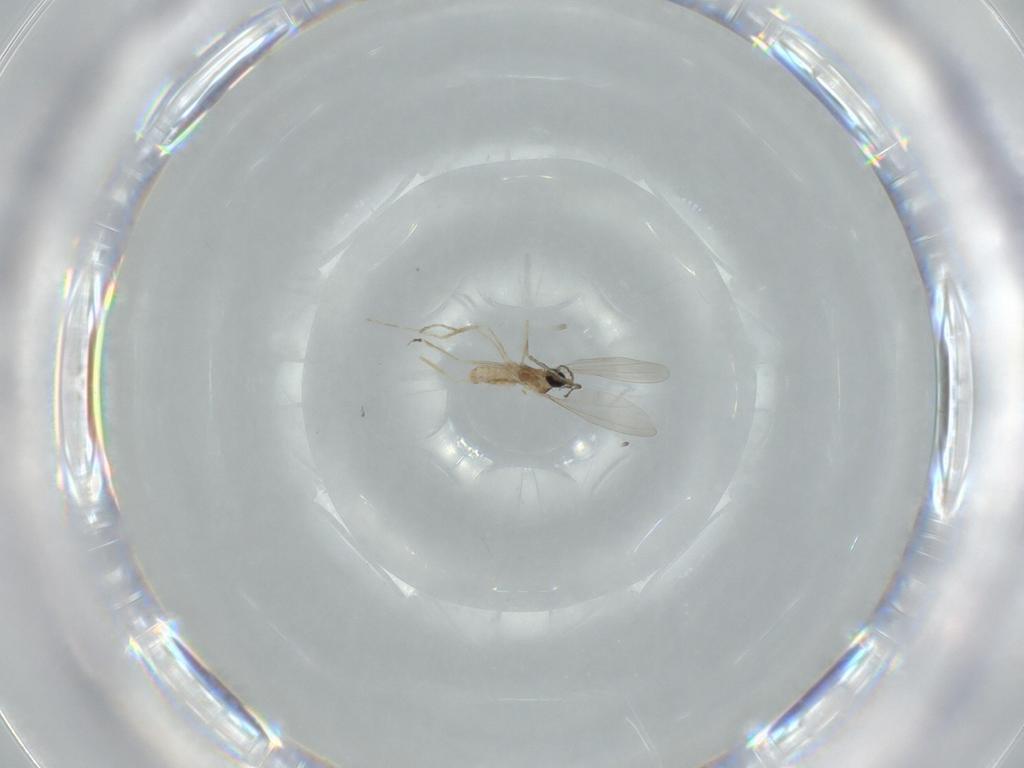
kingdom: Animalia
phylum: Arthropoda
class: Insecta
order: Diptera
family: Cecidomyiidae
